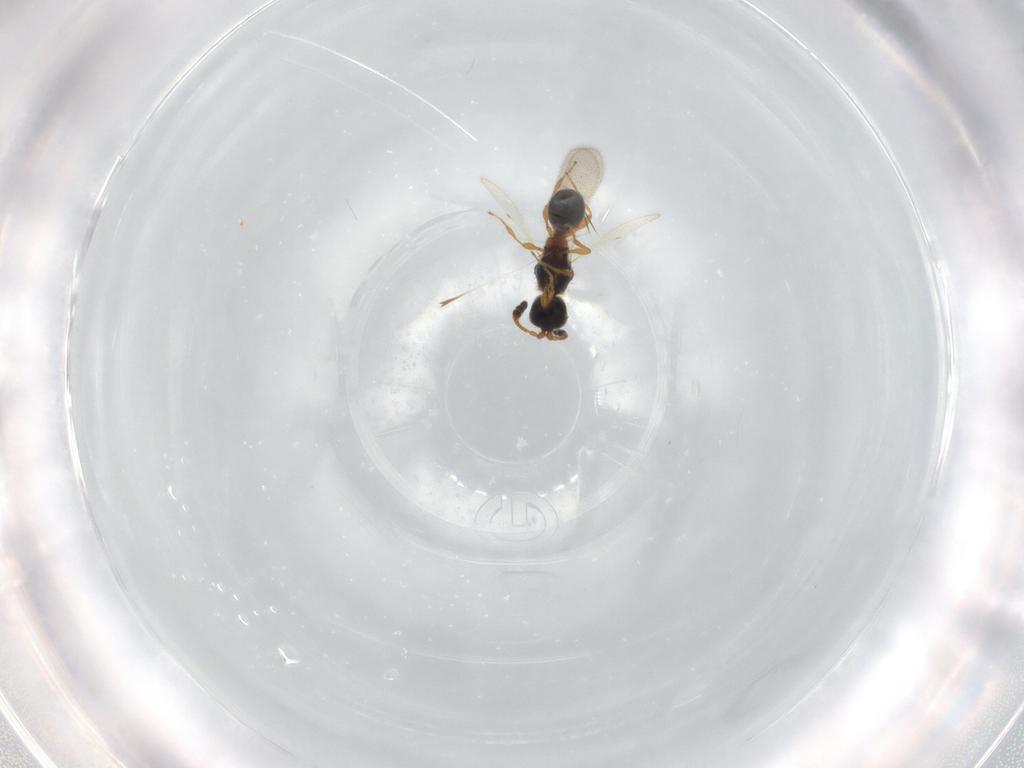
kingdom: Animalia
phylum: Arthropoda
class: Insecta
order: Hymenoptera
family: Diapriidae
